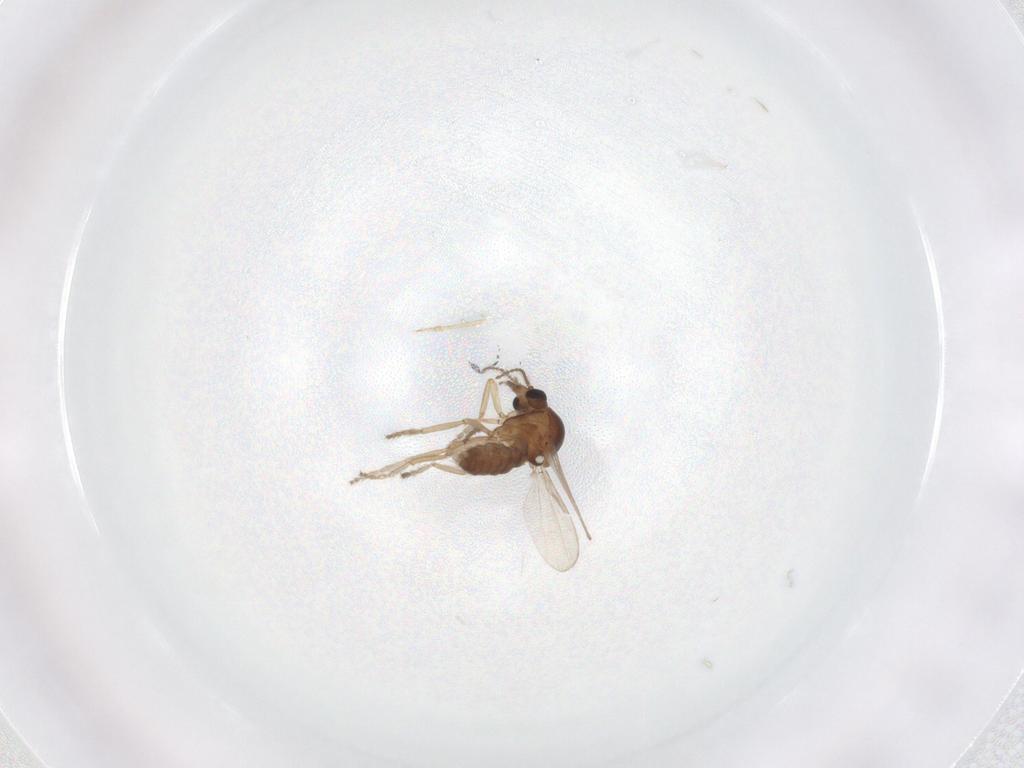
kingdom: Animalia
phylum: Arthropoda
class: Insecta
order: Diptera
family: Ceratopogonidae
